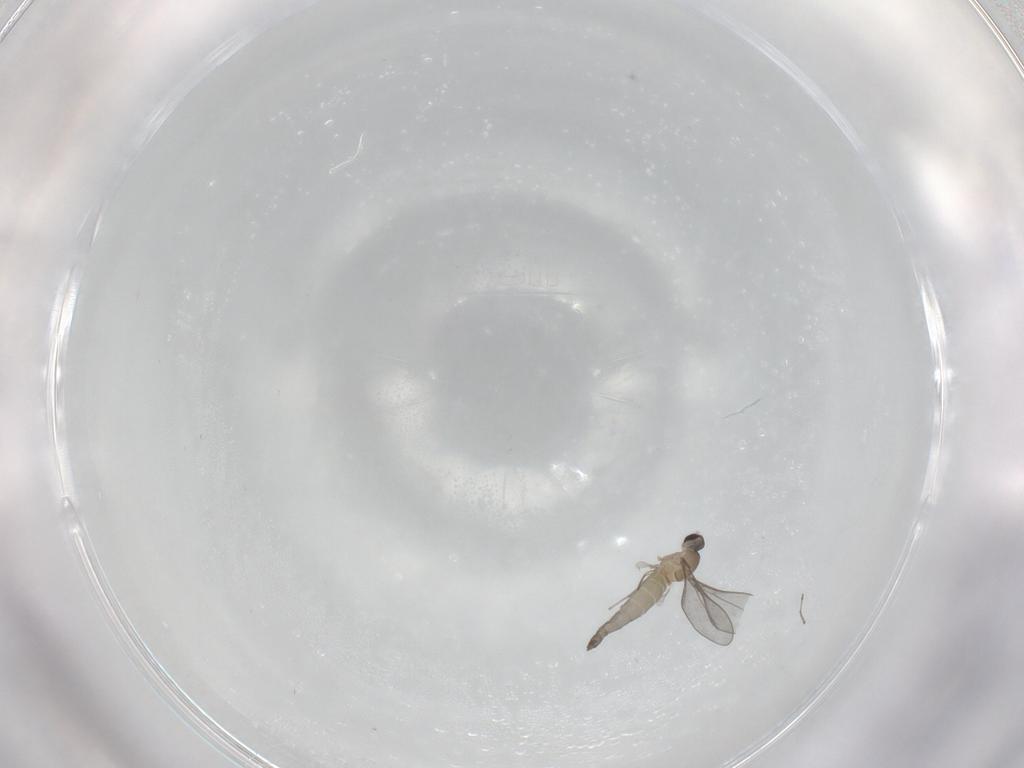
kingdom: Animalia
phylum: Arthropoda
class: Insecta
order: Diptera
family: Cecidomyiidae
